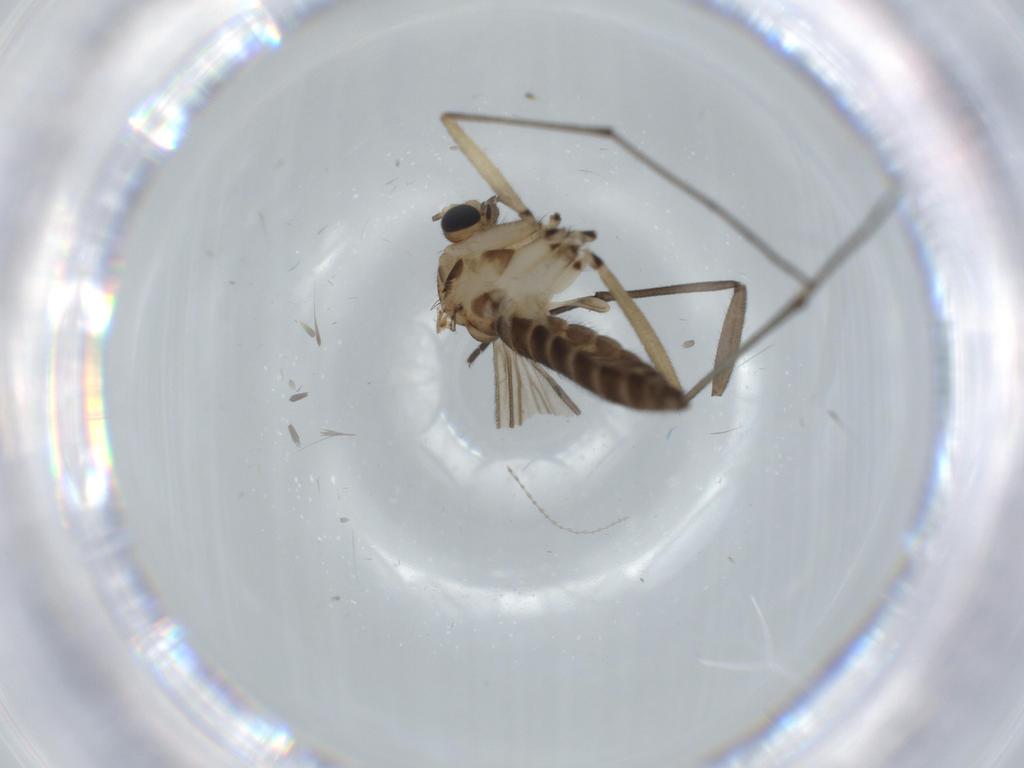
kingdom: Animalia
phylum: Arthropoda
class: Insecta
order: Diptera
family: Sciaridae
